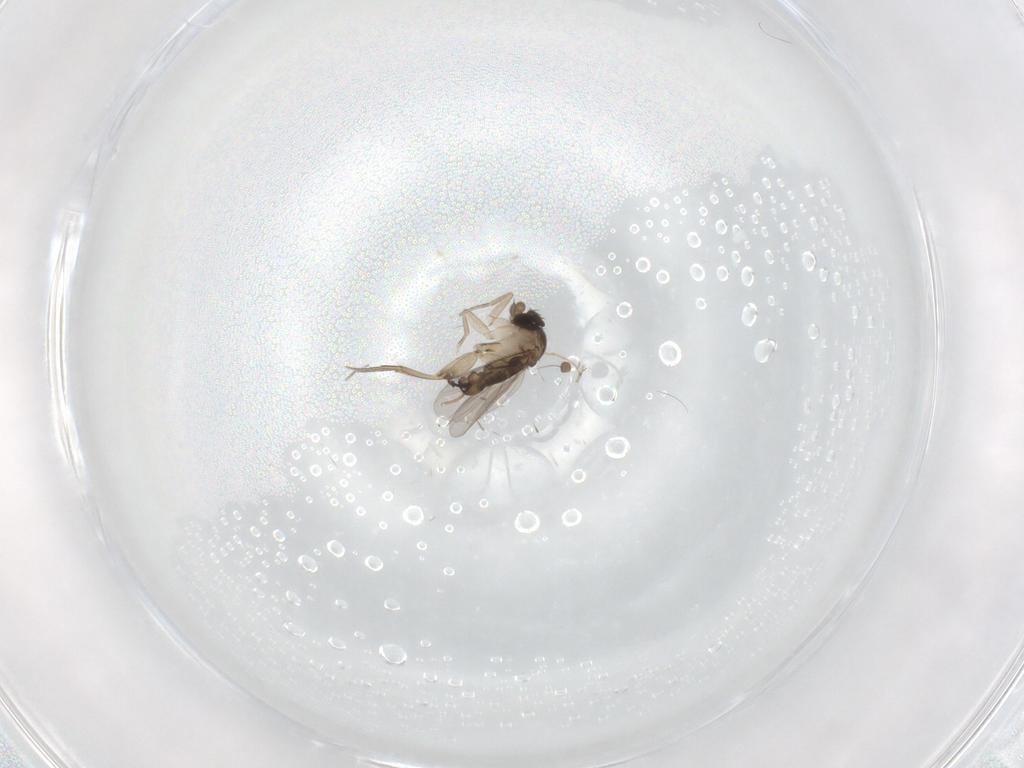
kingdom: Animalia
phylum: Arthropoda
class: Insecta
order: Diptera
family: Phoridae
